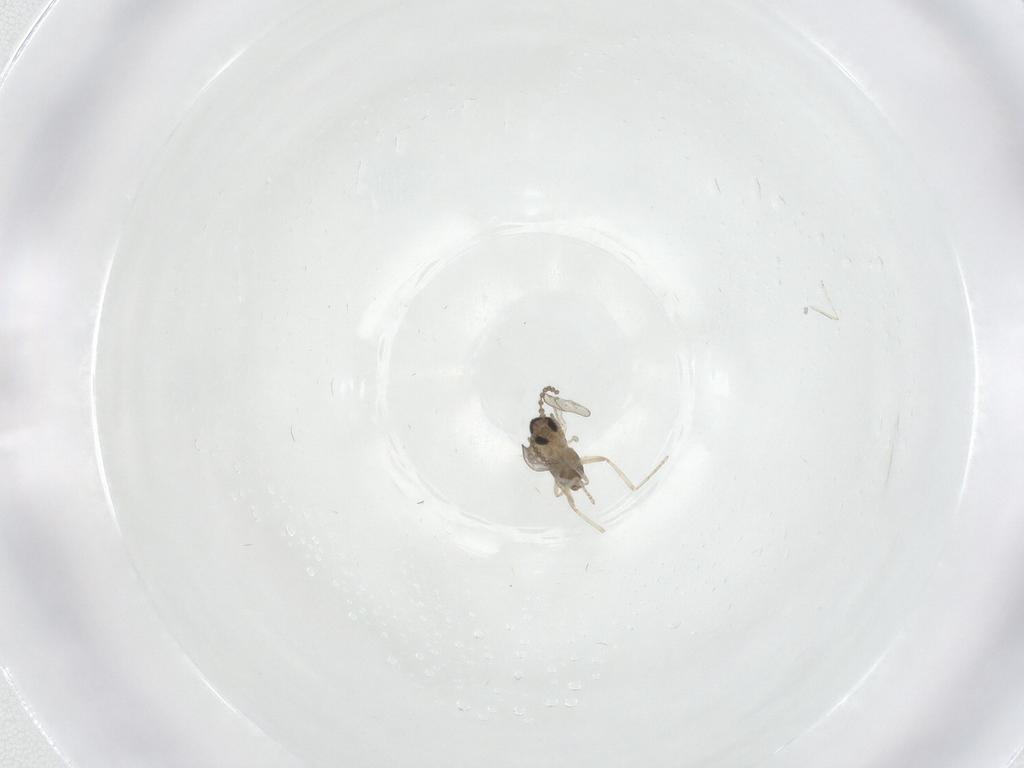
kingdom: Animalia
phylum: Arthropoda
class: Insecta
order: Diptera
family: Cecidomyiidae
